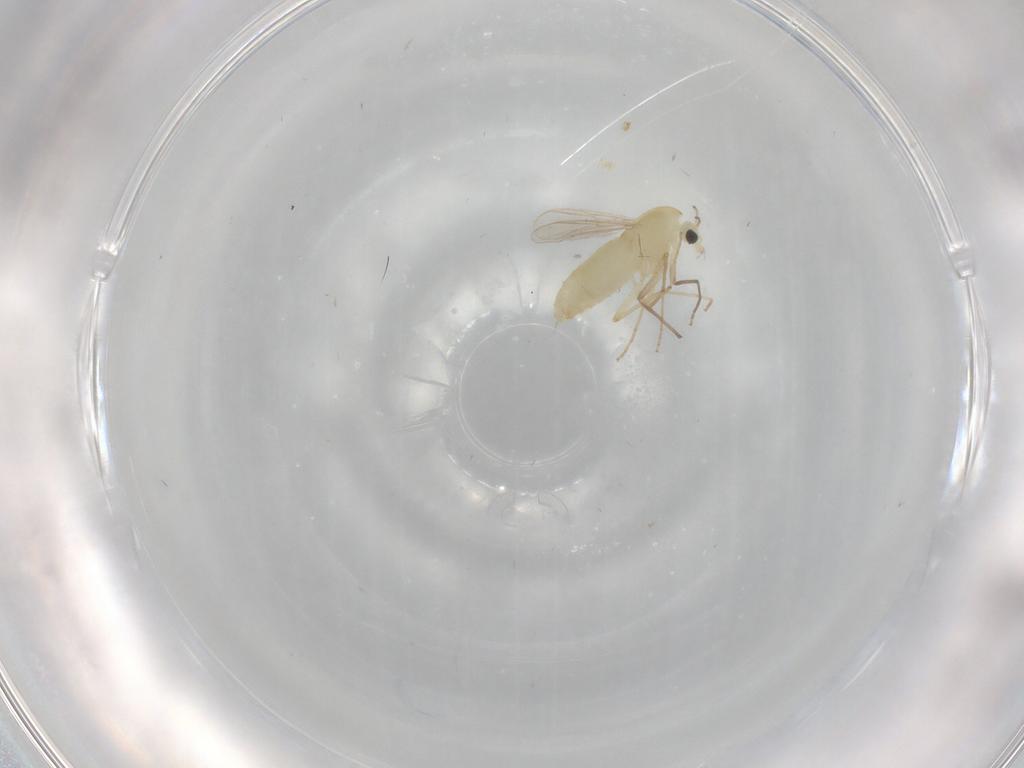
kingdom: Animalia
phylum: Arthropoda
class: Insecta
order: Diptera
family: Chironomidae
